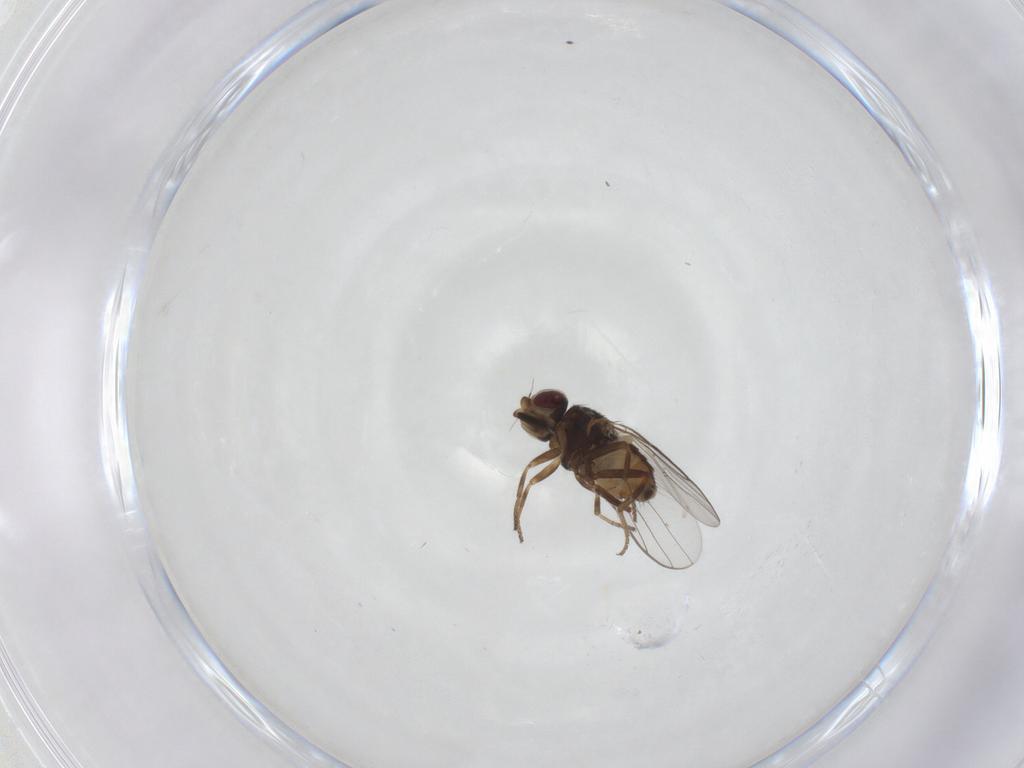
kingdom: Animalia
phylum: Arthropoda
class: Insecta
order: Diptera
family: Chloropidae
